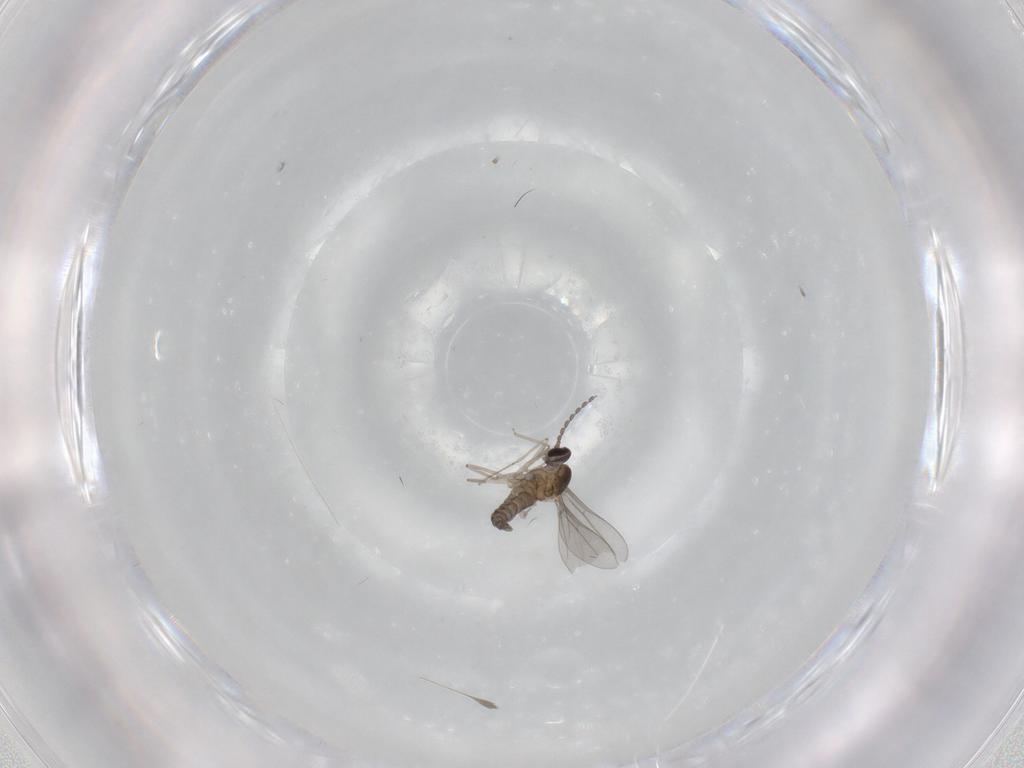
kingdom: Animalia
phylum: Arthropoda
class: Insecta
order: Diptera
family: Cecidomyiidae
